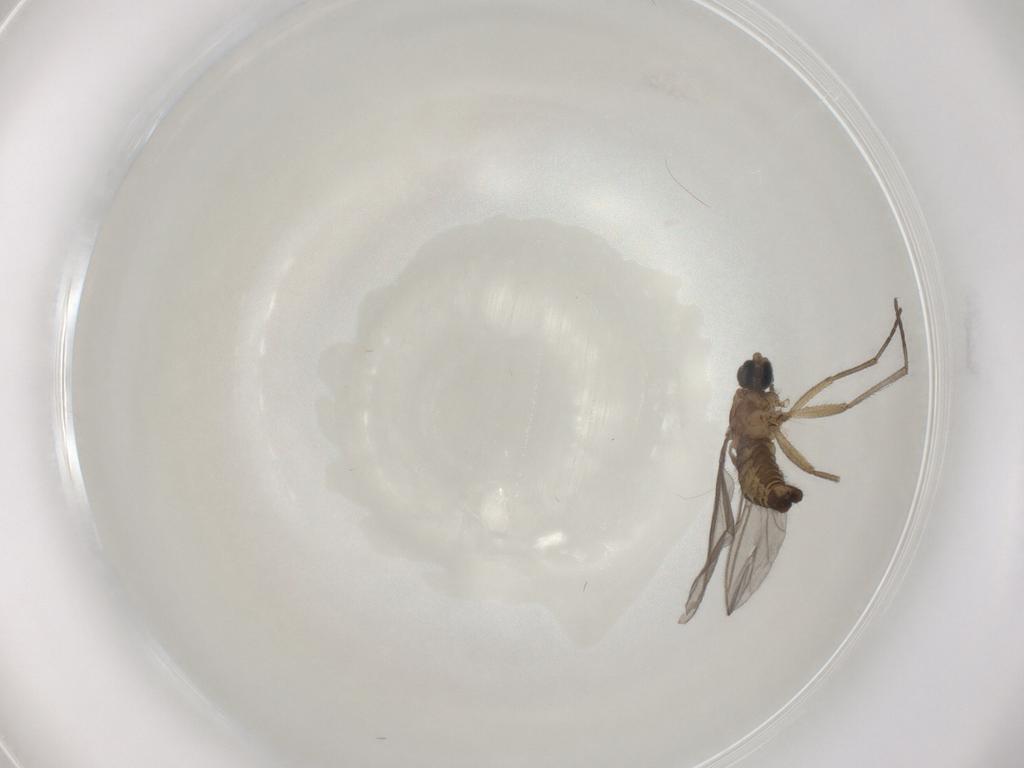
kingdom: Animalia
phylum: Arthropoda
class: Insecta
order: Diptera
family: Sciaridae
